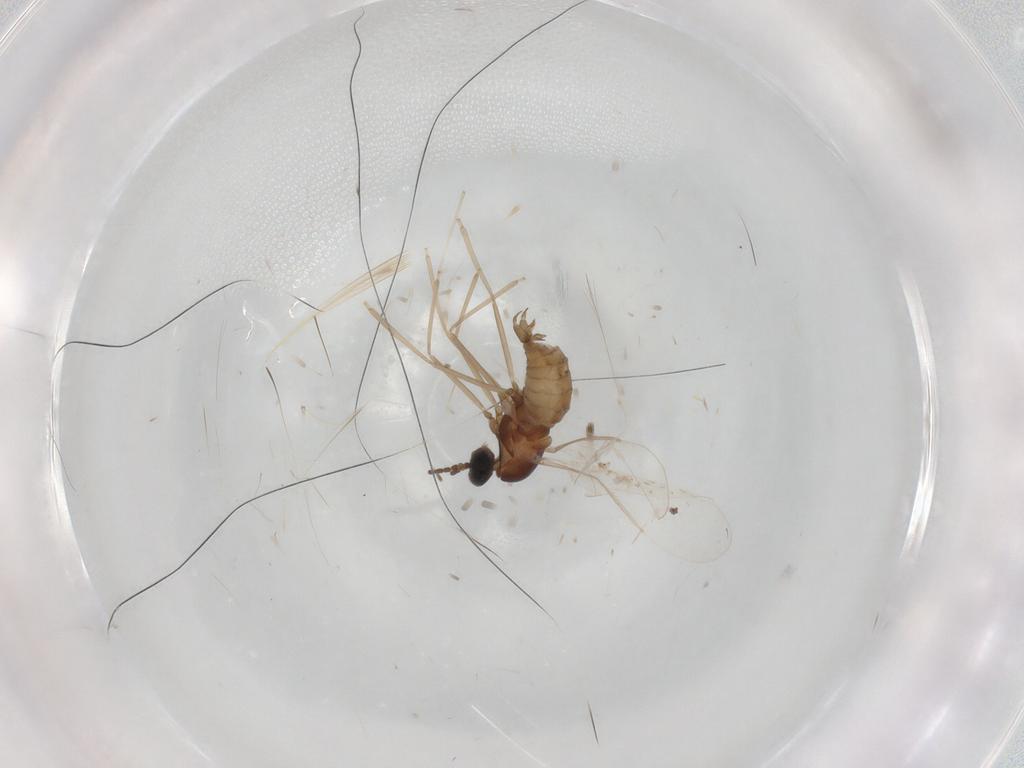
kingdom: Animalia
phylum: Arthropoda
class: Insecta
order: Diptera
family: Cecidomyiidae
